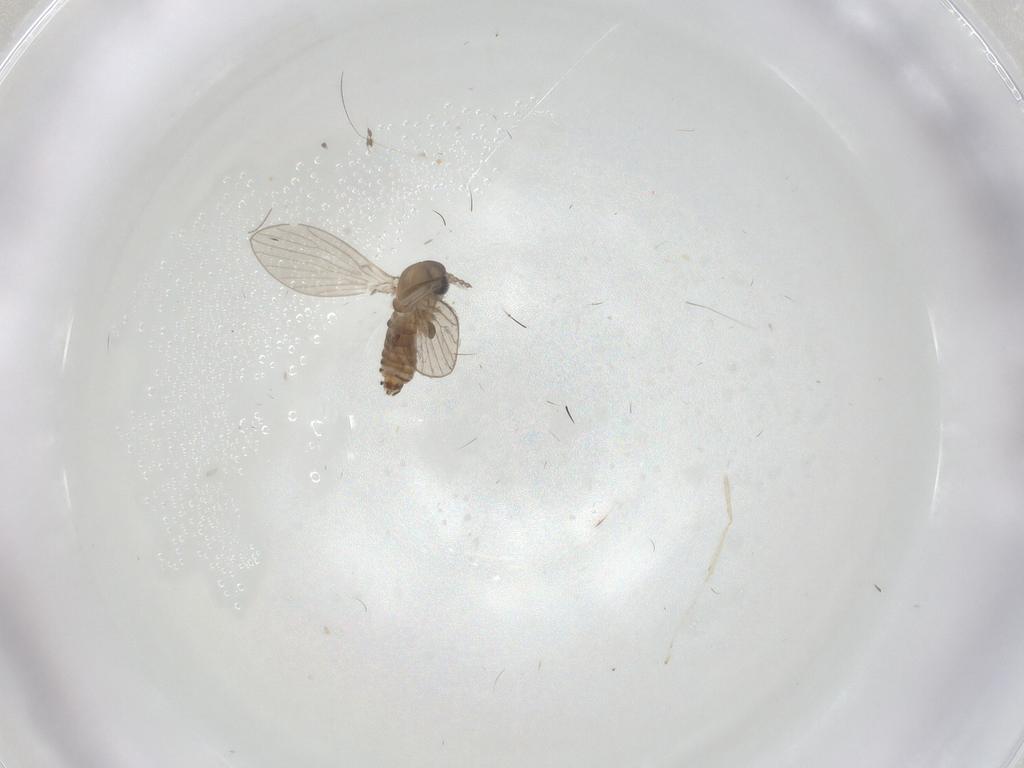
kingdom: Animalia
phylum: Arthropoda
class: Insecta
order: Diptera
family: Chironomidae
